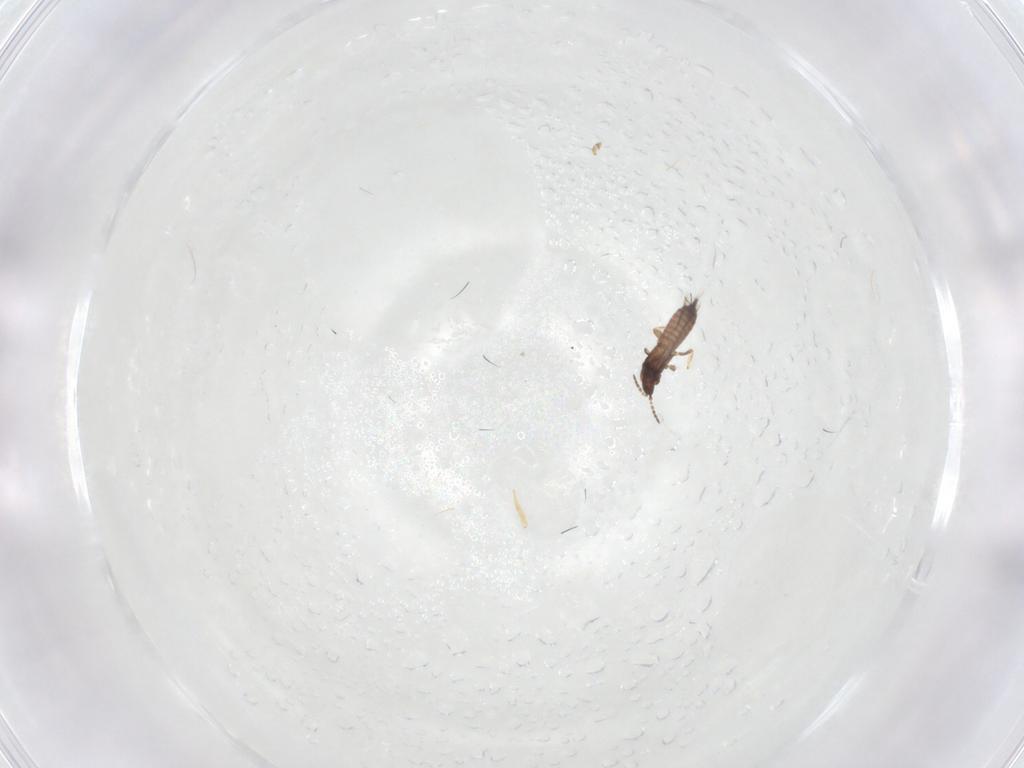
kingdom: Animalia
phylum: Arthropoda
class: Insecta
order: Thysanoptera
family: Phlaeothripidae
